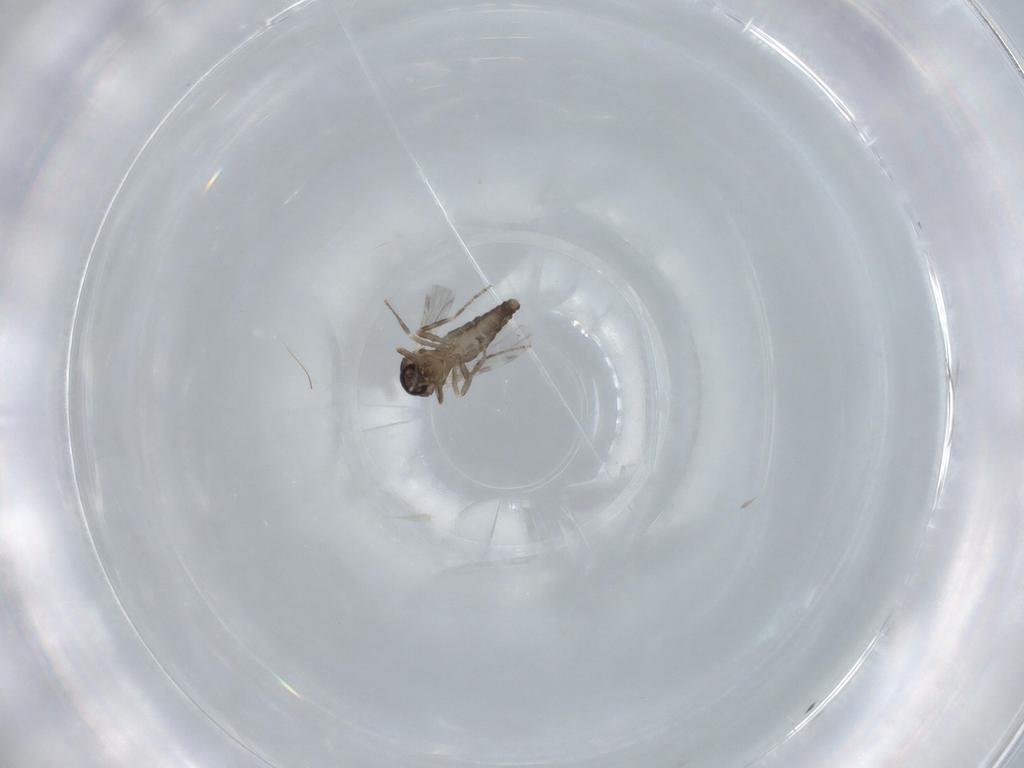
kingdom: Animalia
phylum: Arthropoda
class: Insecta
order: Diptera
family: Ceratopogonidae
